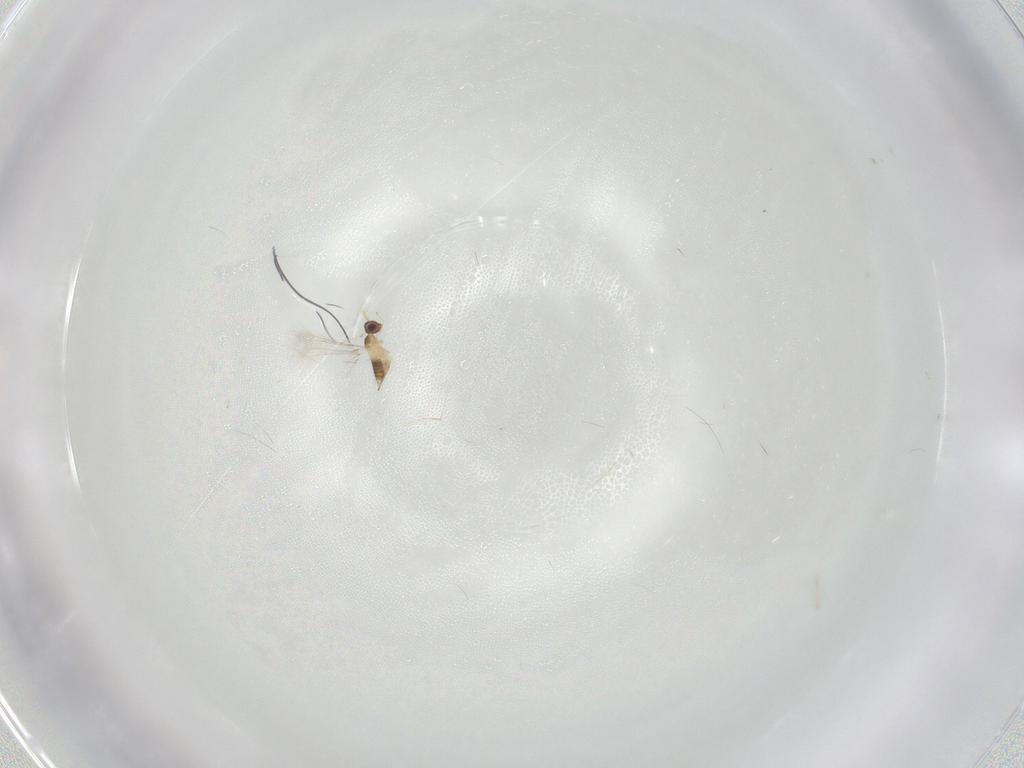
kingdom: Animalia
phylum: Arthropoda
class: Insecta
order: Hymenoptera
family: Mymaridae
